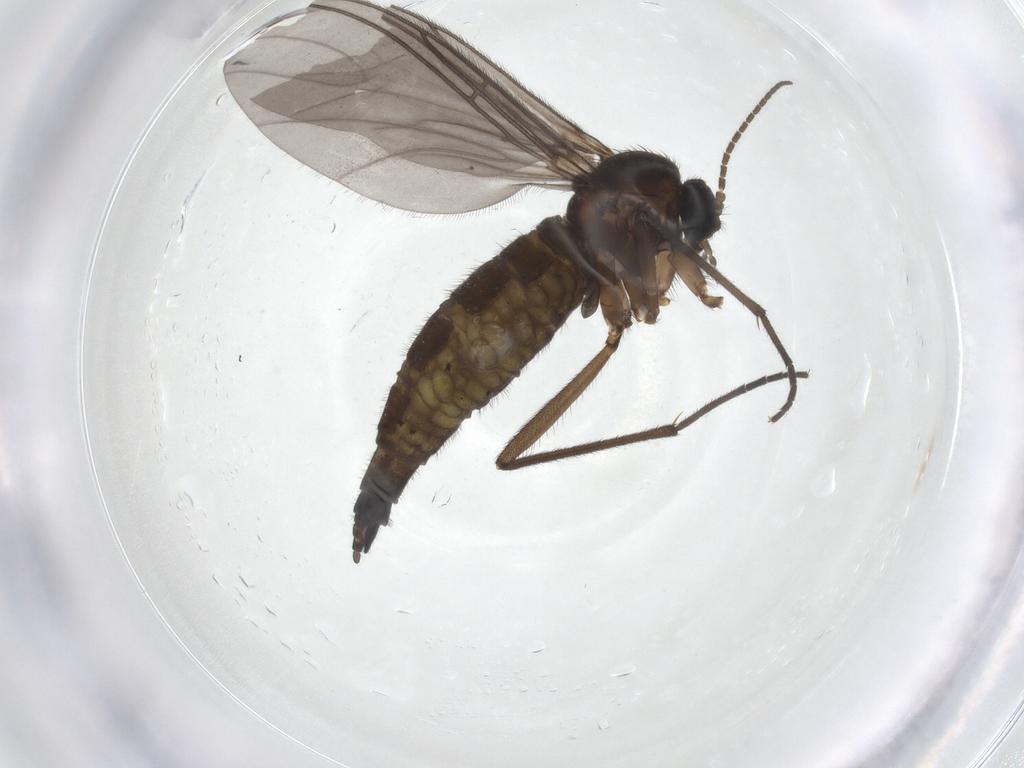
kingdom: Animalia
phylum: Arthropoda
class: Insecta
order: Diptera
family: Sciaridae
